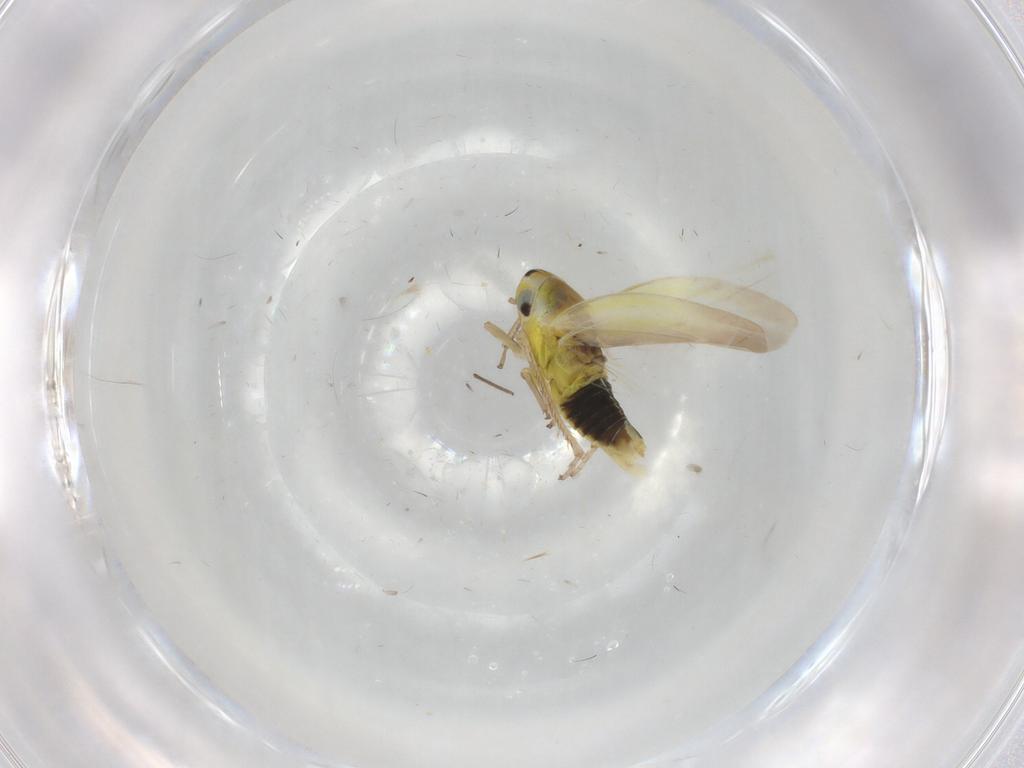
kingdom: Animalia
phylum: Arthropoda
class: Insecta
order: Hemiptera
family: Cicadellidae
